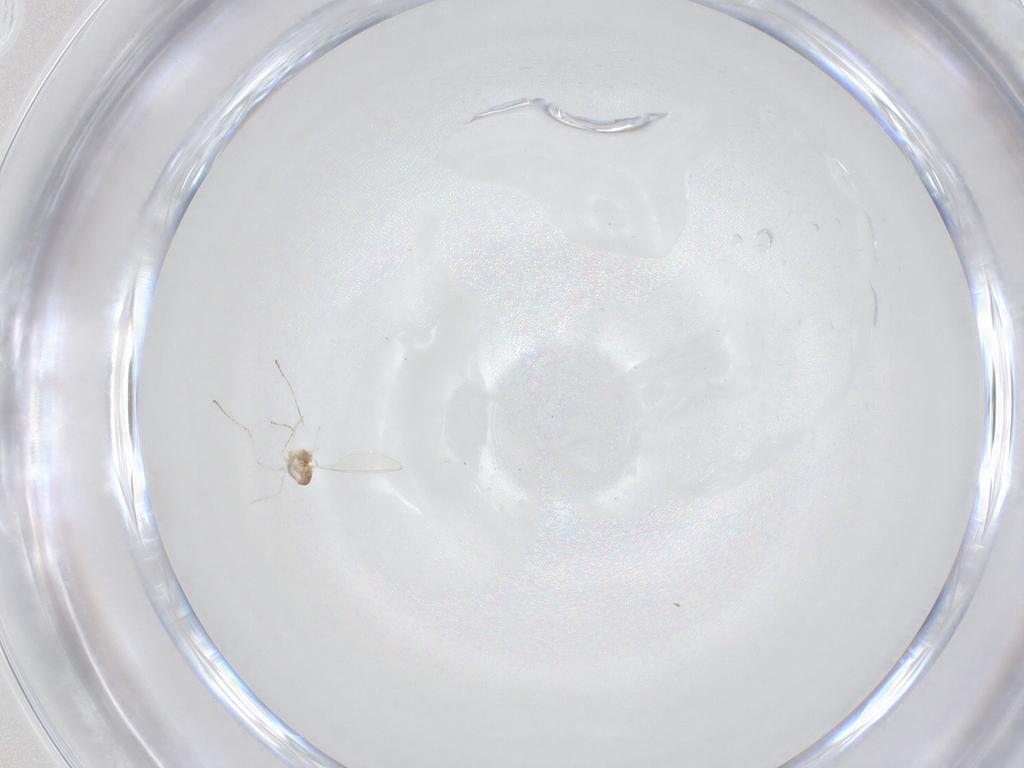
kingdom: Animalia
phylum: Arthropoda
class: Insecta
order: Diptera
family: Cecidomyiidae
